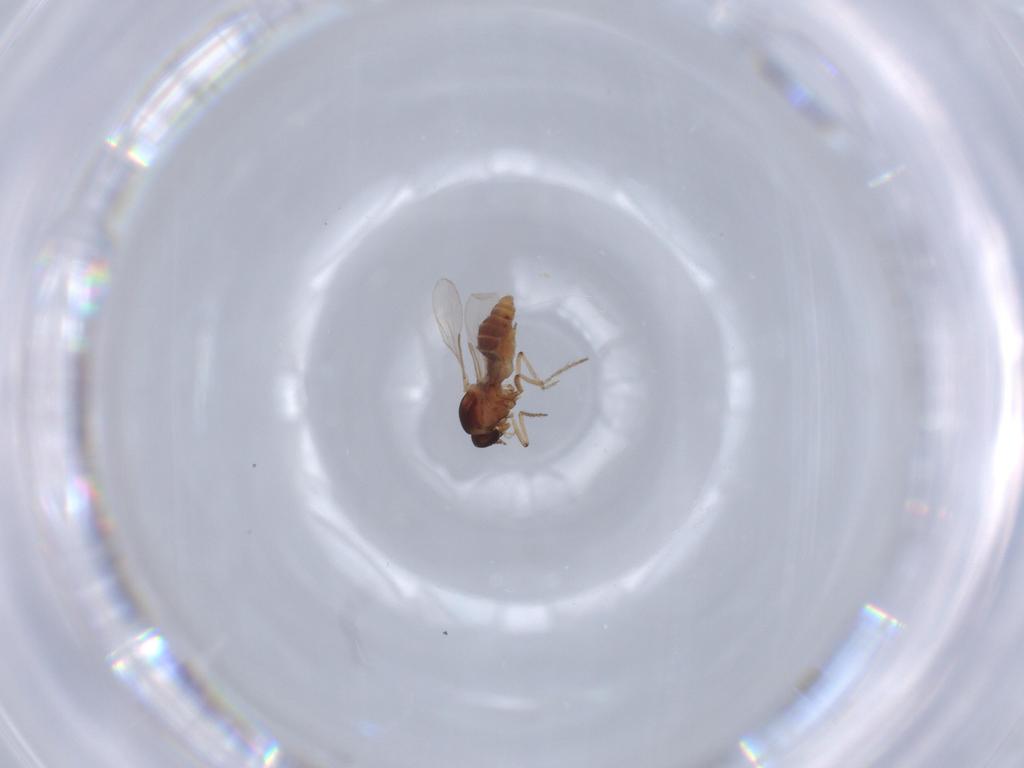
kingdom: Animalia
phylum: Arthropoda
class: Insecta
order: Diptera
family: Ceratopogonidae
